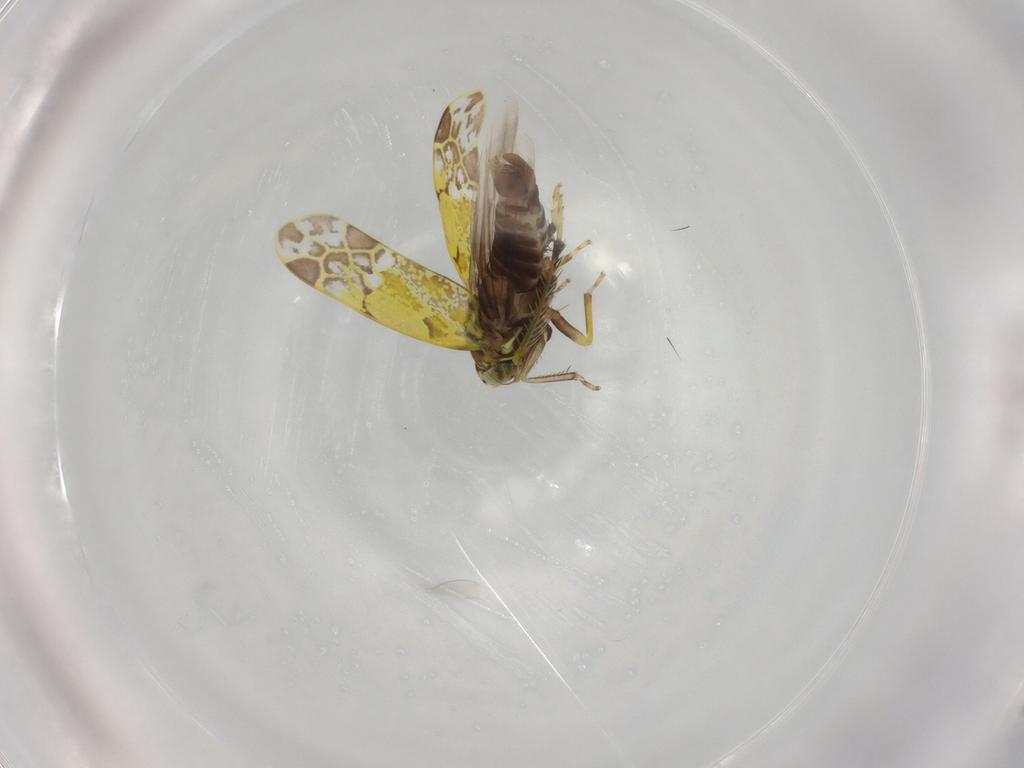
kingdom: Animalia
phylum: Arthropoda
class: Insecta
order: Hemiptera
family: Cicadellidae
